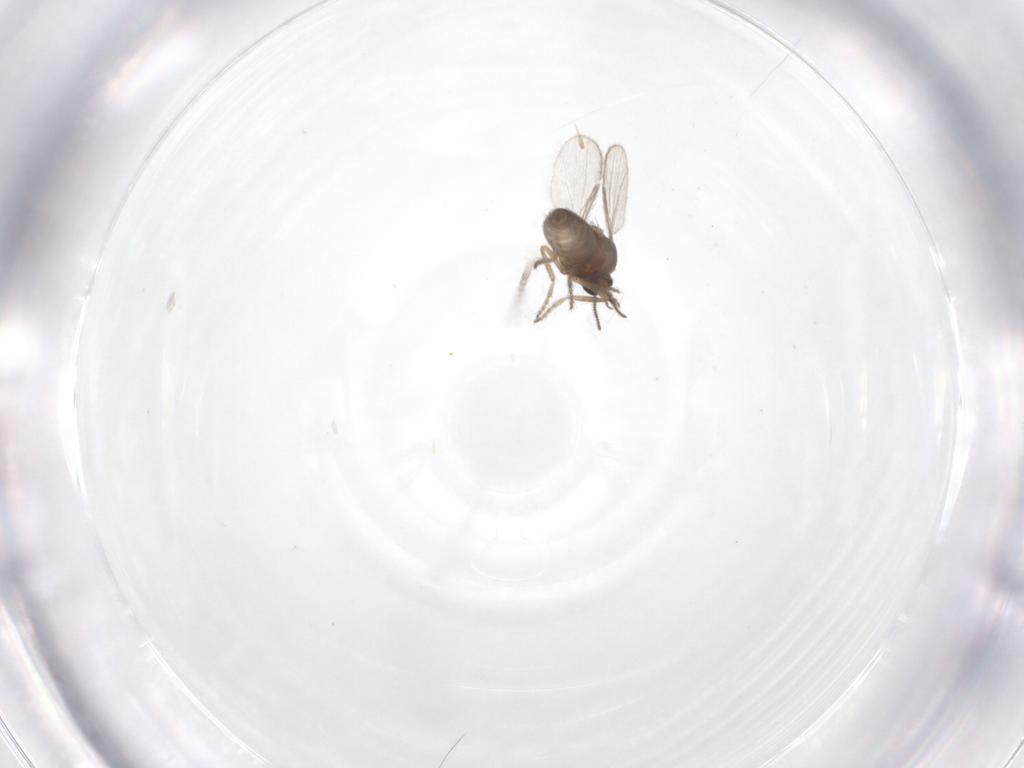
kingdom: Animalia
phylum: Arthropoda
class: Insecta
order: Diptera
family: Ceratopogonidae
